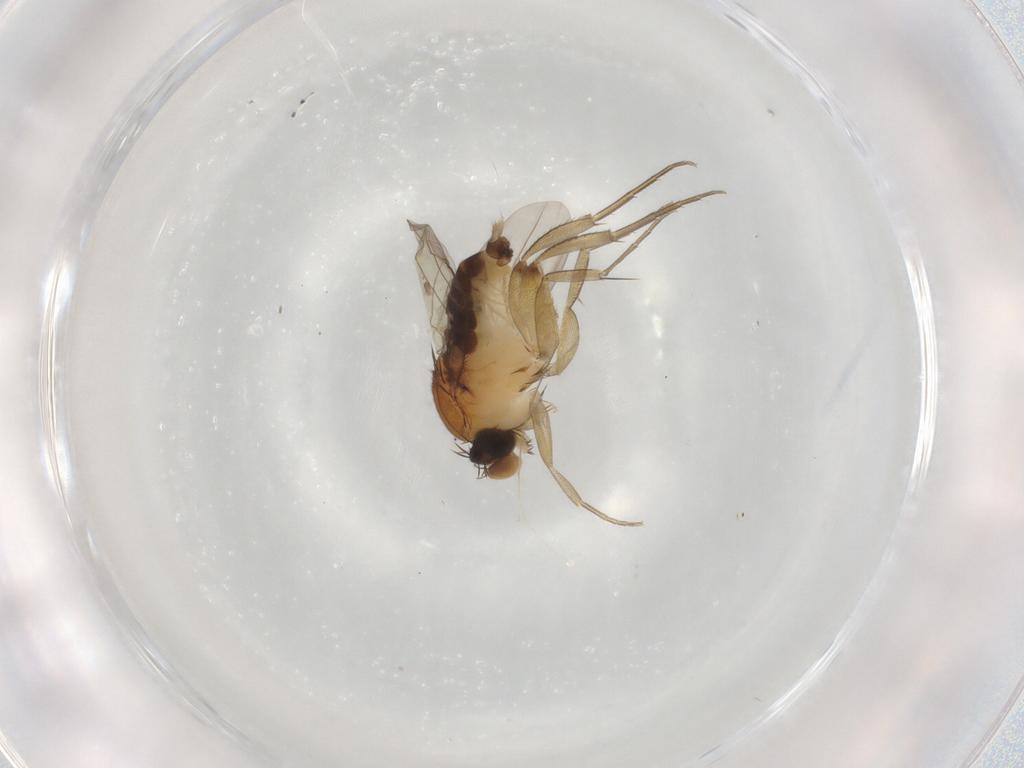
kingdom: Animalia
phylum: Arthropoda
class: Insecta
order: Diptera
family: Phoridae
